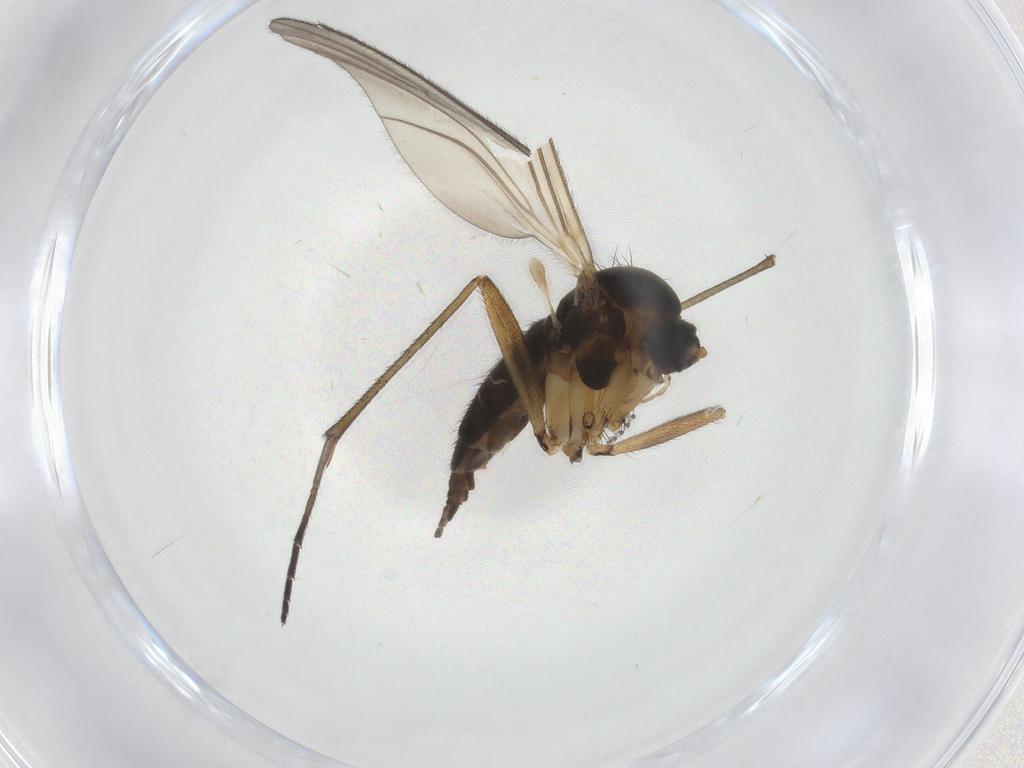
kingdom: Animalia
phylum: Arthropoda
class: Insecta
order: Diptera
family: Sciaridae
